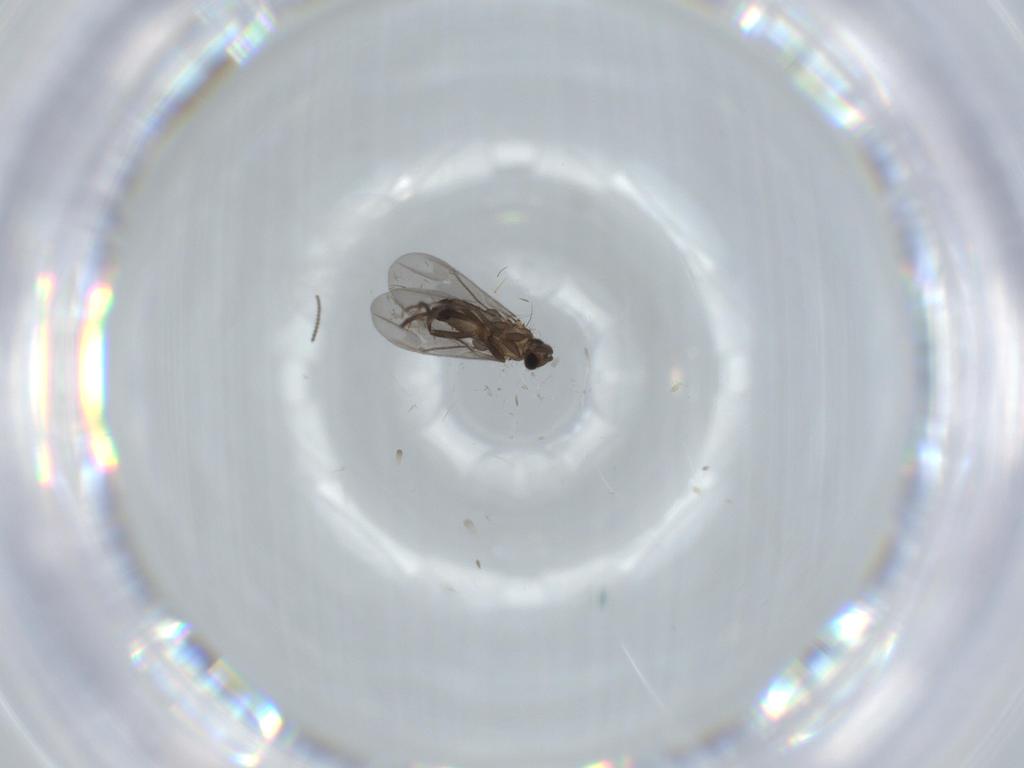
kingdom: Animalia
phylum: Arthropoda
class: Insecta
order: Diptera
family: Phoridae
